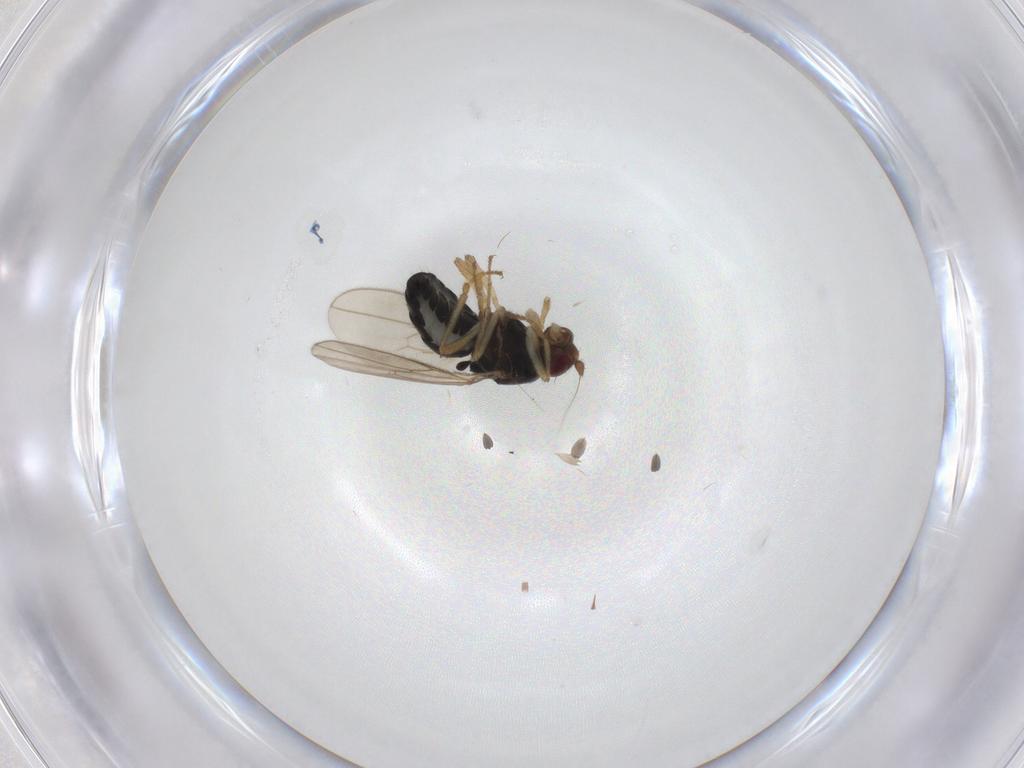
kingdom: Animalia
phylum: Arthropoda
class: Insecta
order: Diptera
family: Sphaeroceridae
